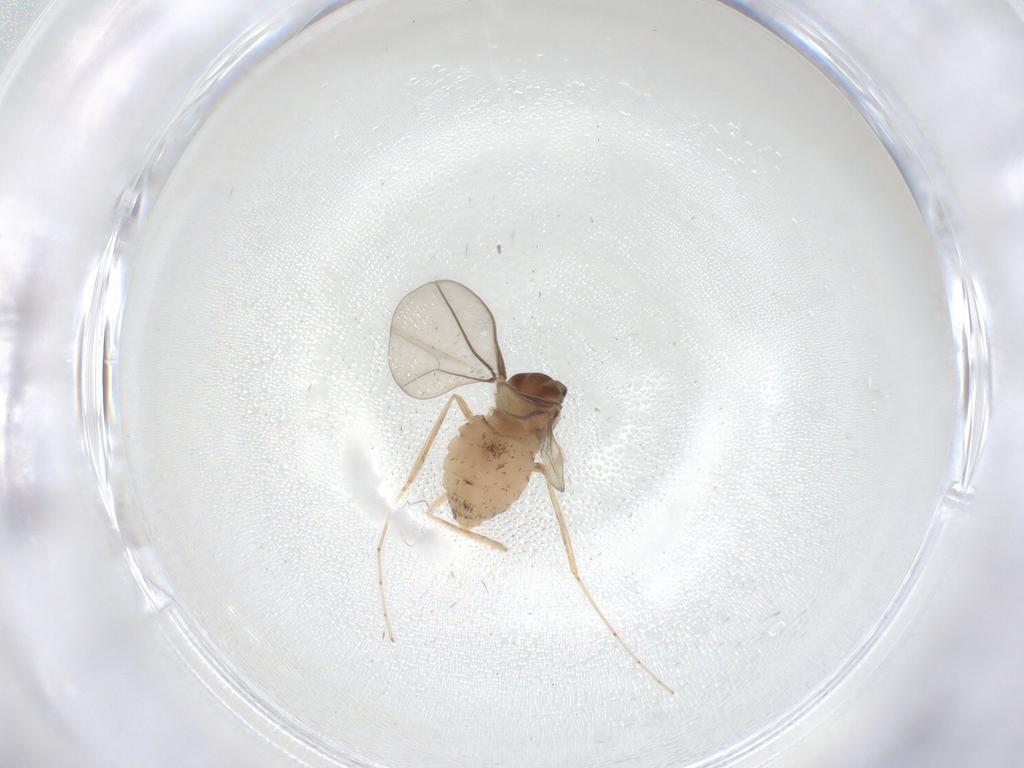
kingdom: Animalia
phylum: Arthropoda
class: Insecta
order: Diptera
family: Cecidomyiidae
